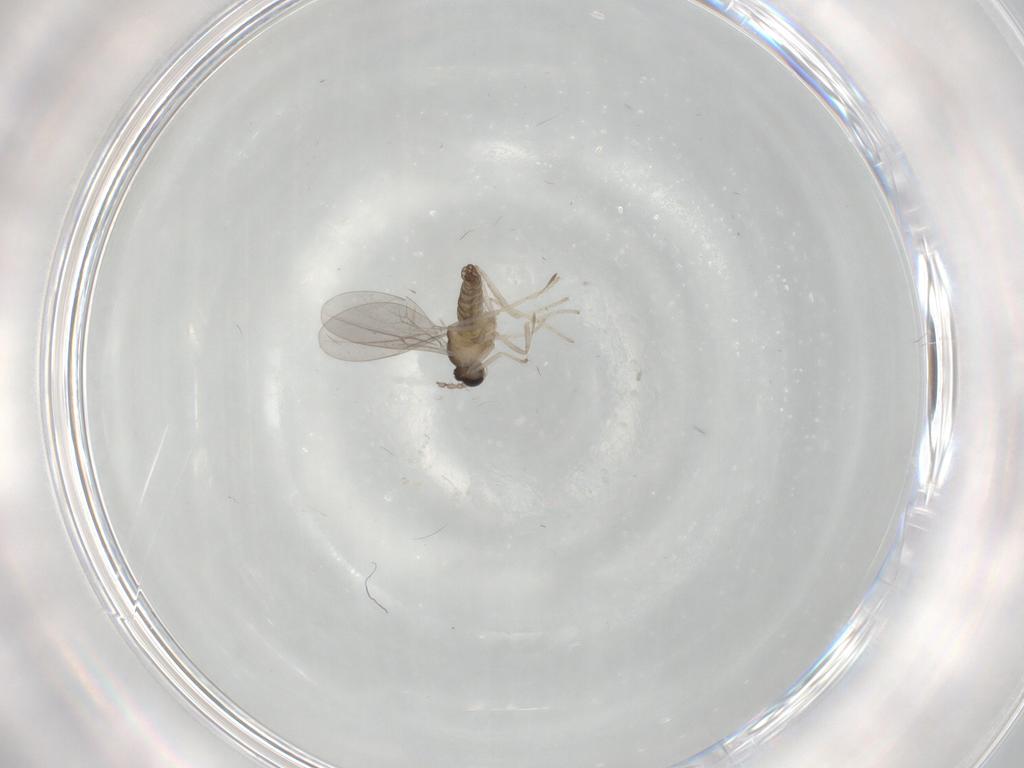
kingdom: Animalia
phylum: Arthropoda
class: Insecta
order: Diptera
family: Cecidomyiidae
